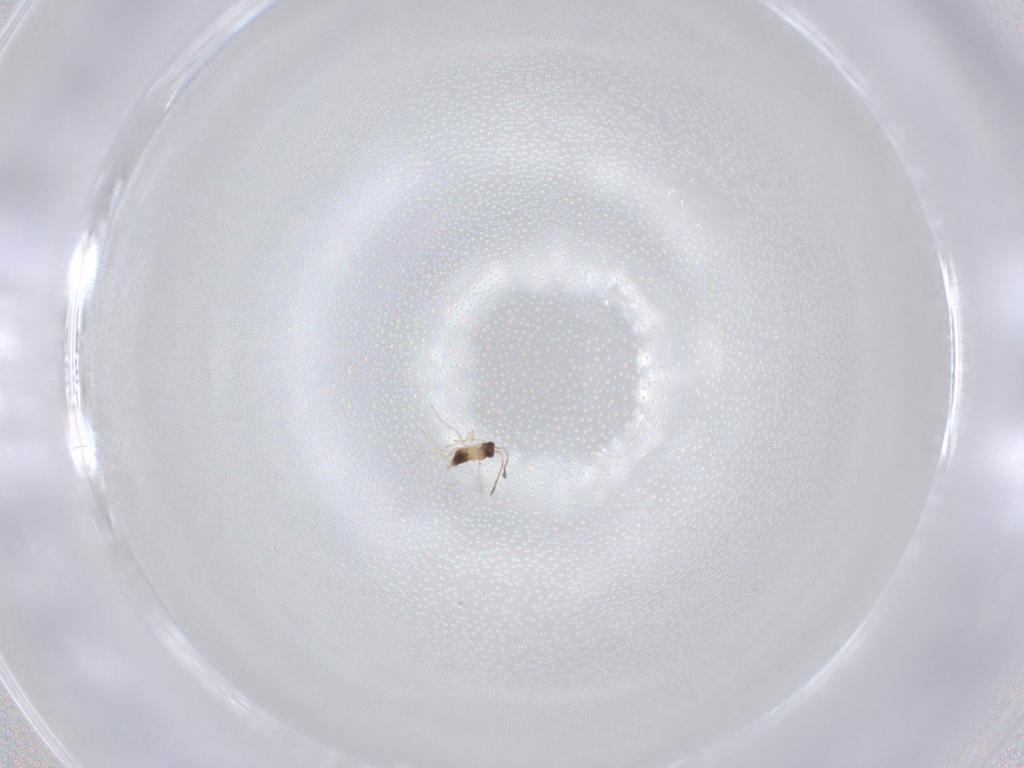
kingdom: Animalia
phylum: Arthropoda
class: Insecta
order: Hymenoptera
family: Mymaridae
